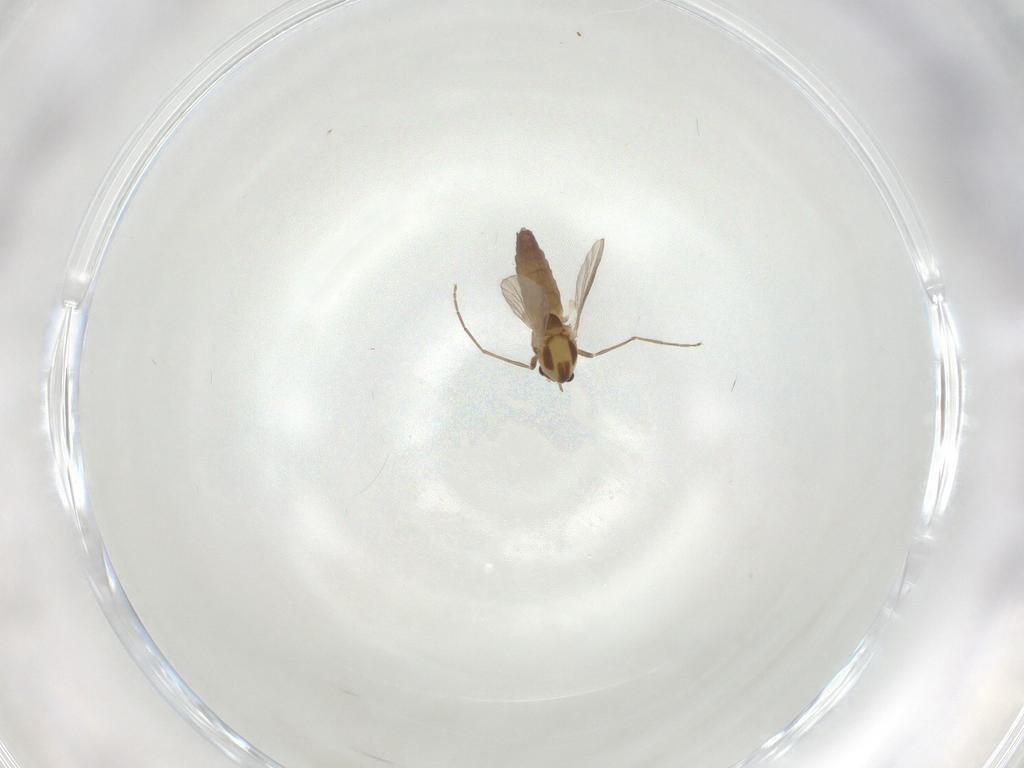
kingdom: Animalia
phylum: Arthropoda
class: Insecta
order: Diptera
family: Chironomidae
